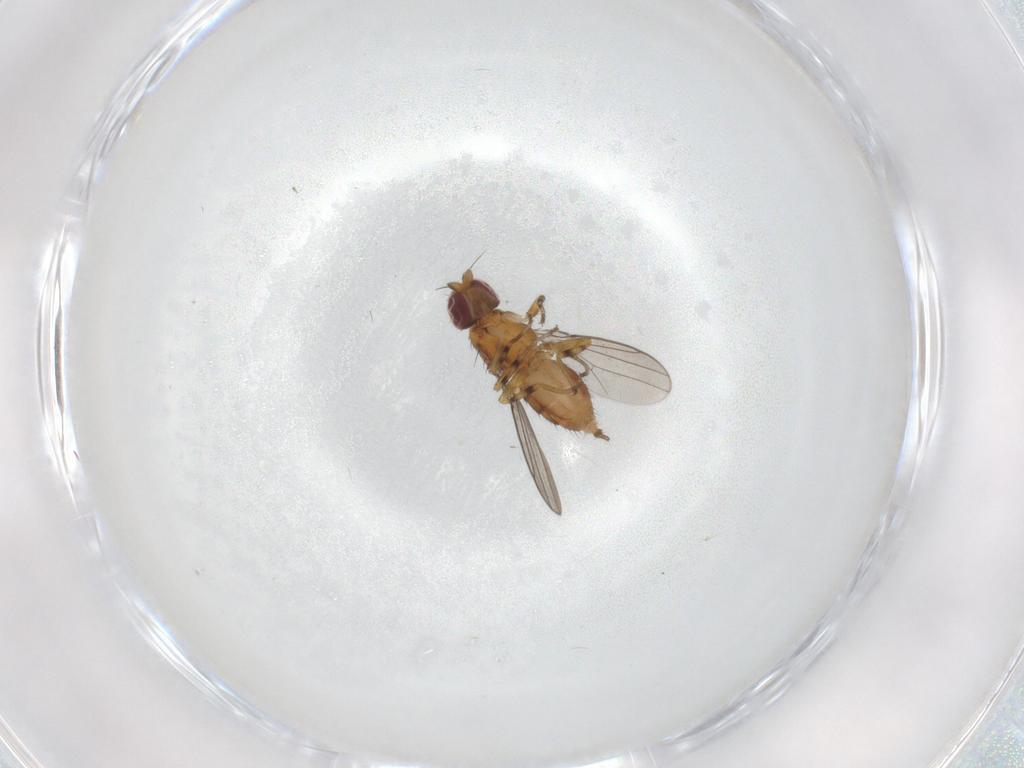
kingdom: Animalia
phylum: Arthropoda
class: Insecta
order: Diptera
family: Chloropidae
